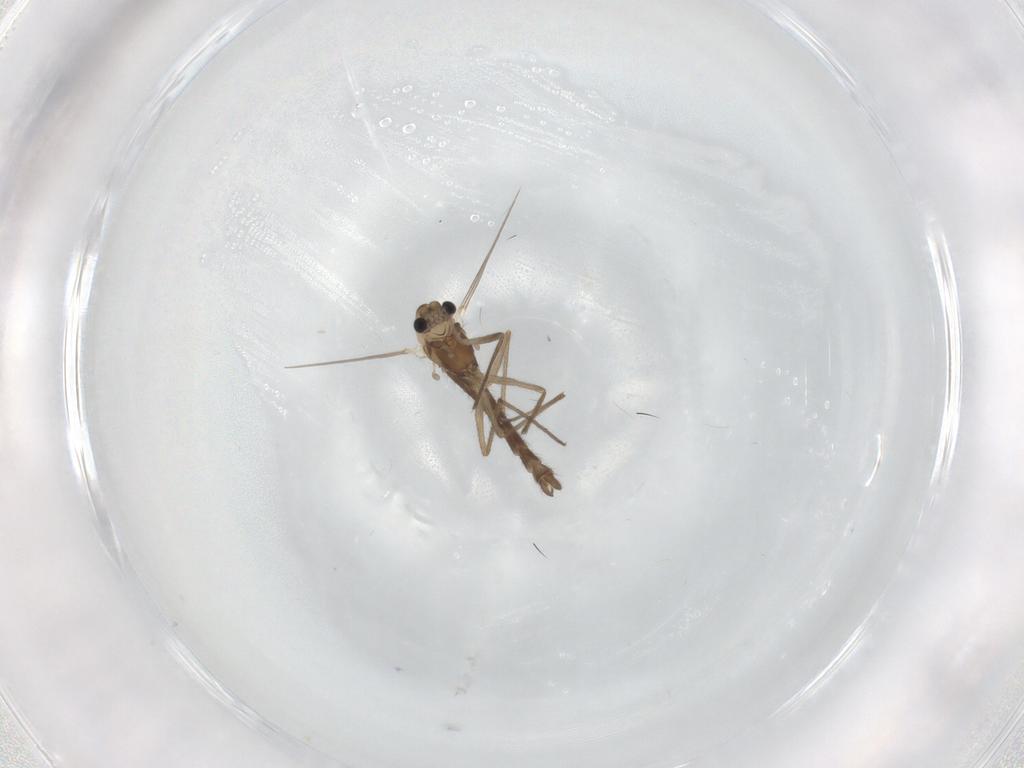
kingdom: Animalia
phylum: Arthropoda
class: Insecta
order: Diptera
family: Chironomidae
